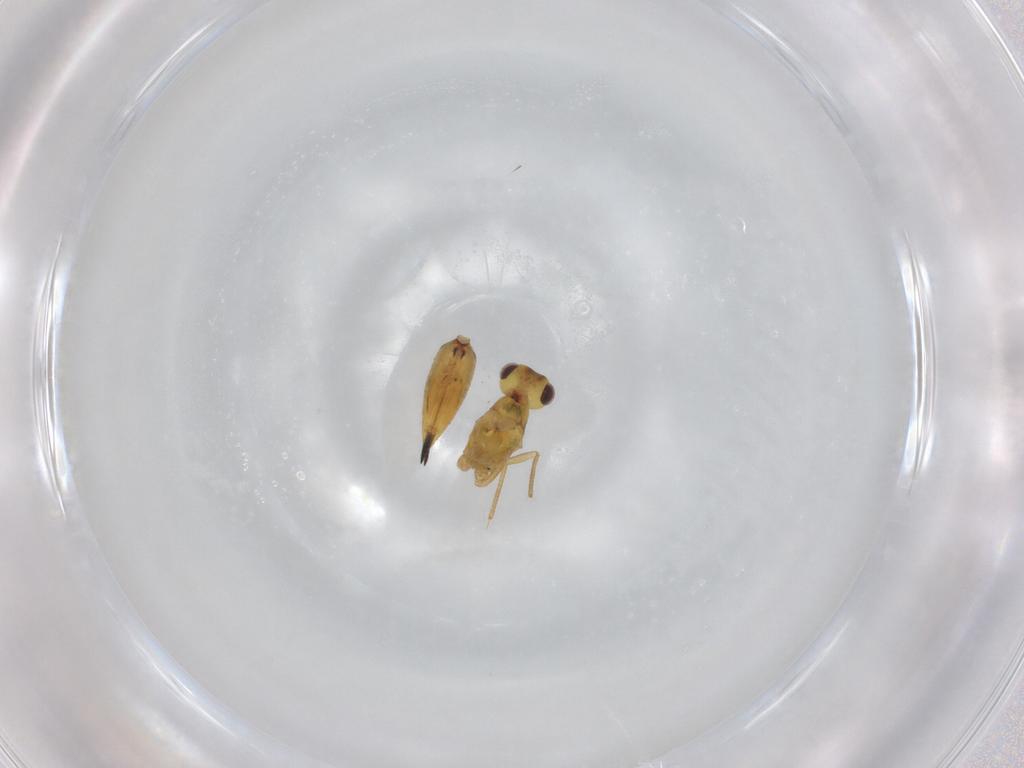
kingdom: Animalia
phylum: Arthropoda
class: Insecta
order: Hymenoptera
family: Eulophidae
